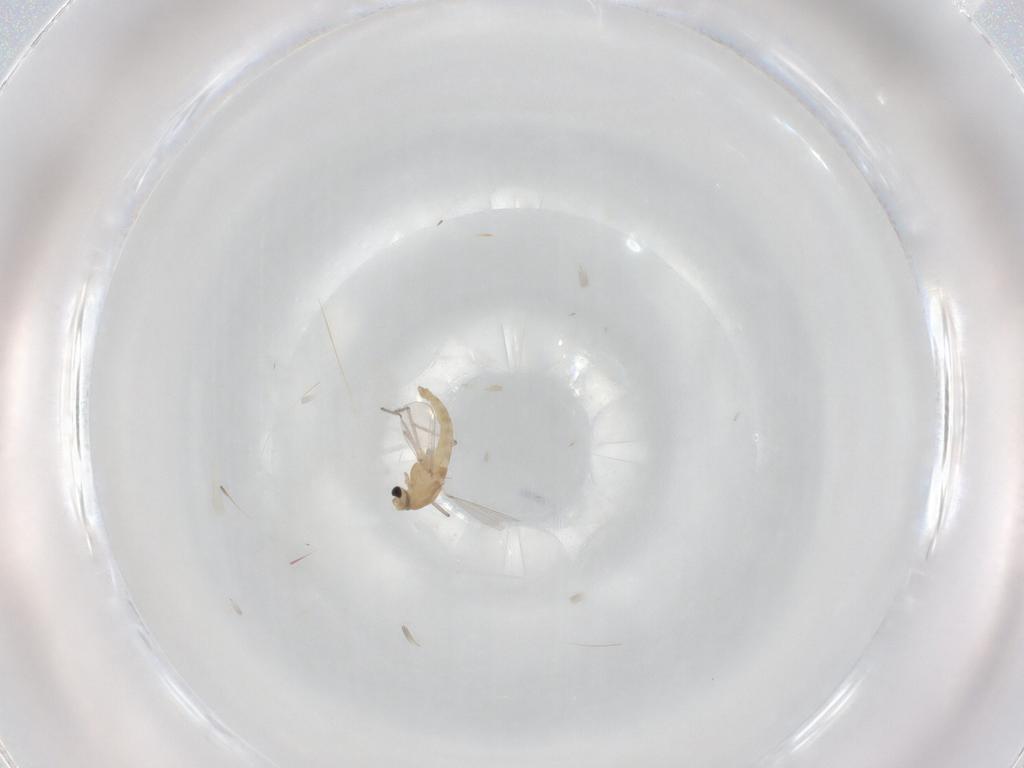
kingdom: Animalia
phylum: Arthropoda
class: Insecta
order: Diptera
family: Chironomidae
